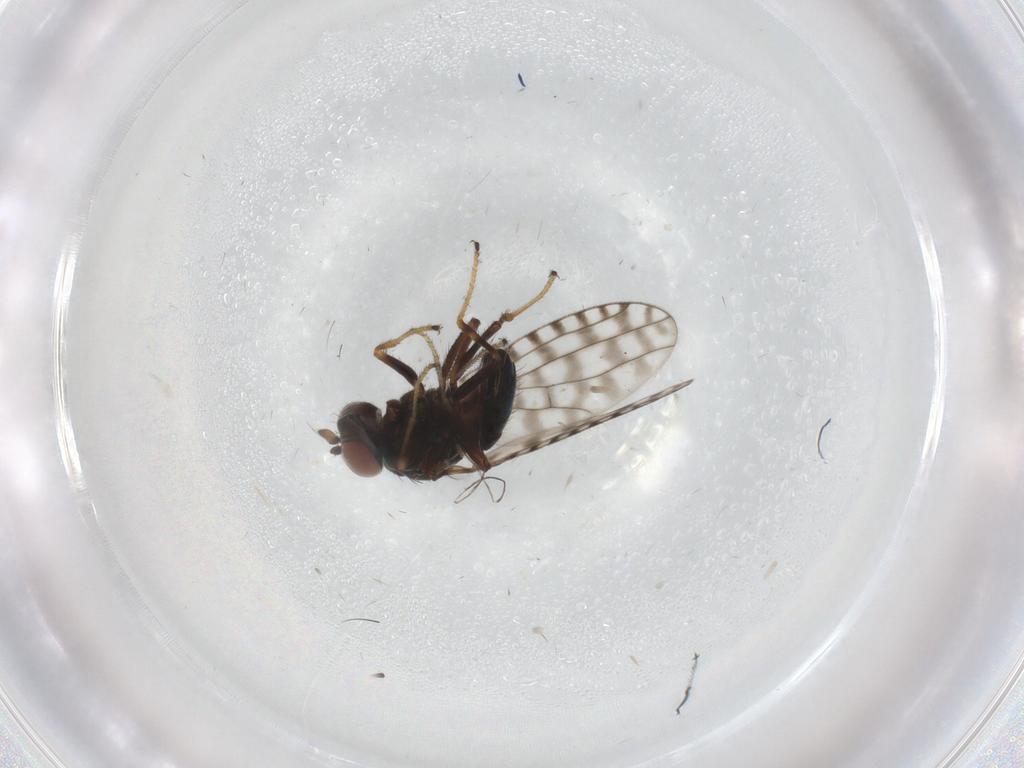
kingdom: Animalia
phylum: Arthropoda
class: Insecta
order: Diptera
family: Ephydridae
